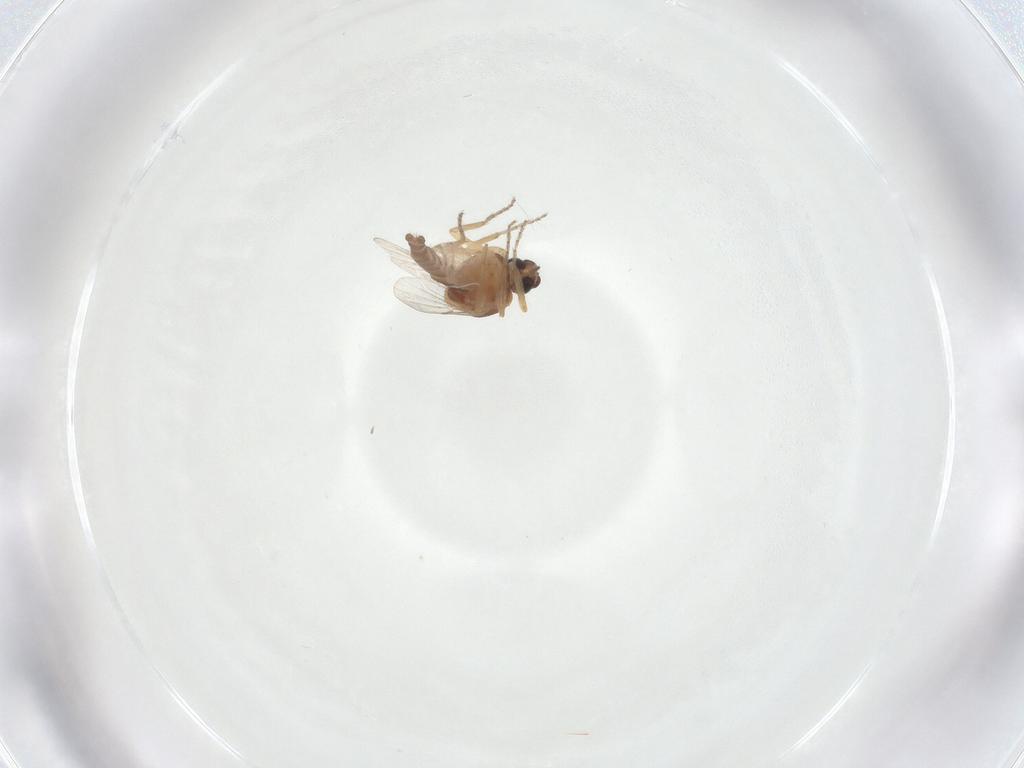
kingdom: Animalia
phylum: Arthropoda
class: Insecta
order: Diptera
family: Ceratopogonidae
